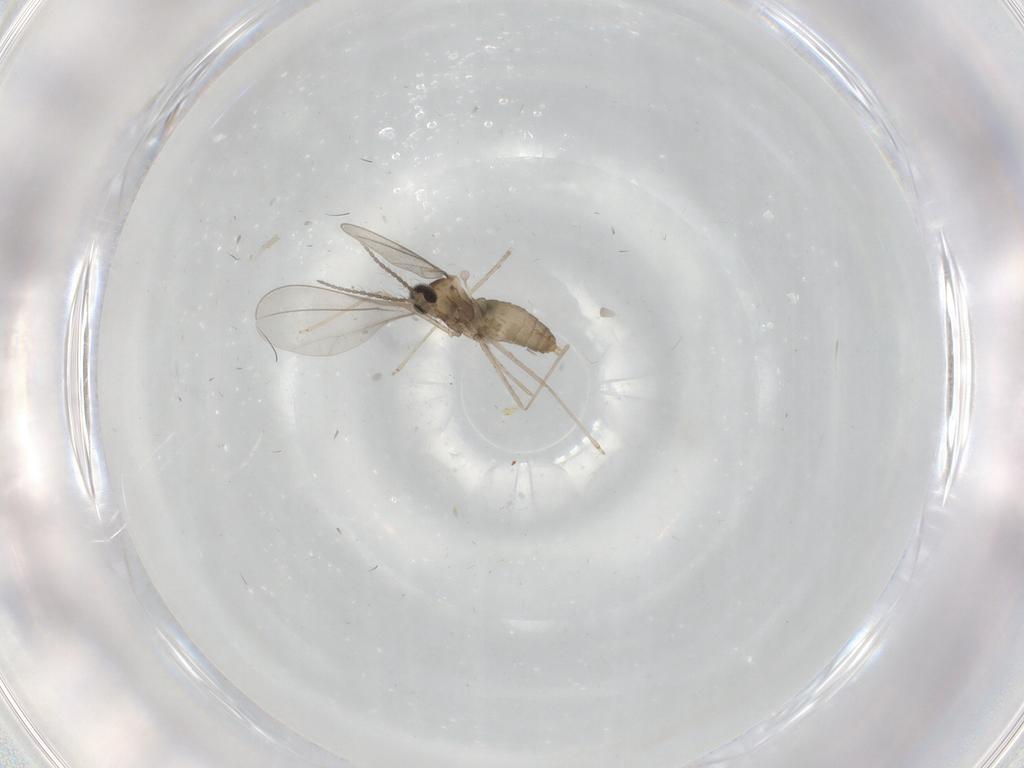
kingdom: Animalia
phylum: Arthropoda
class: Insecta
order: Diptera
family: Cecidomyiidae
